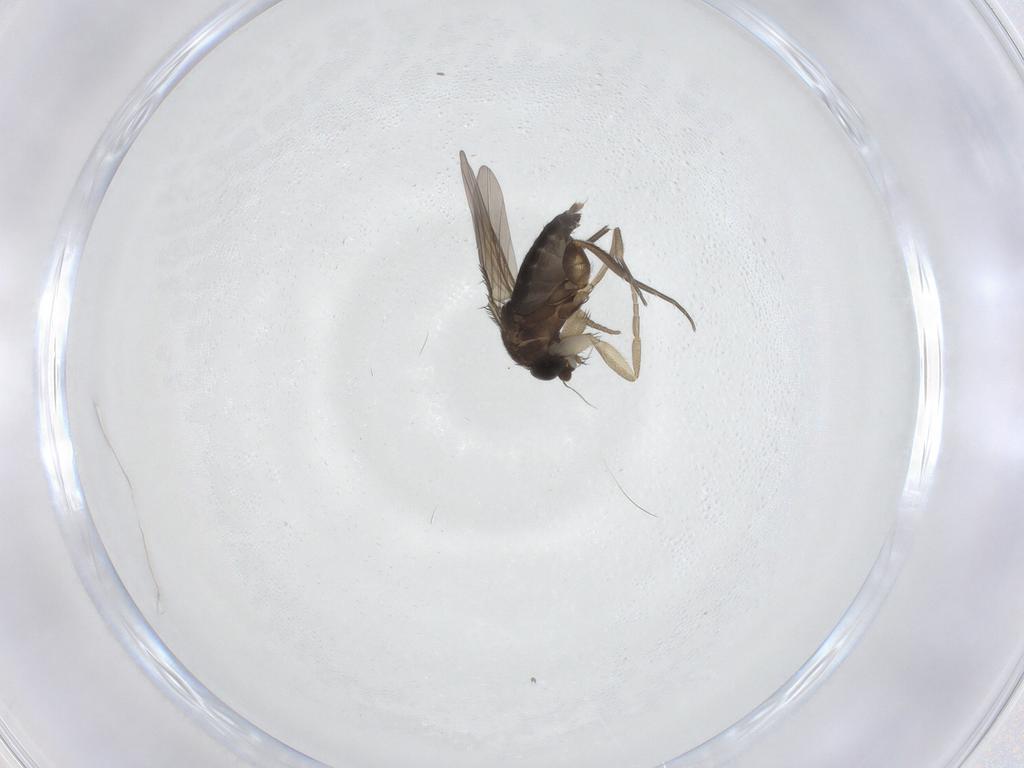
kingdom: Animalia
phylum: Arthropoda
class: Insecta
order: Diptera
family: Phoridae
